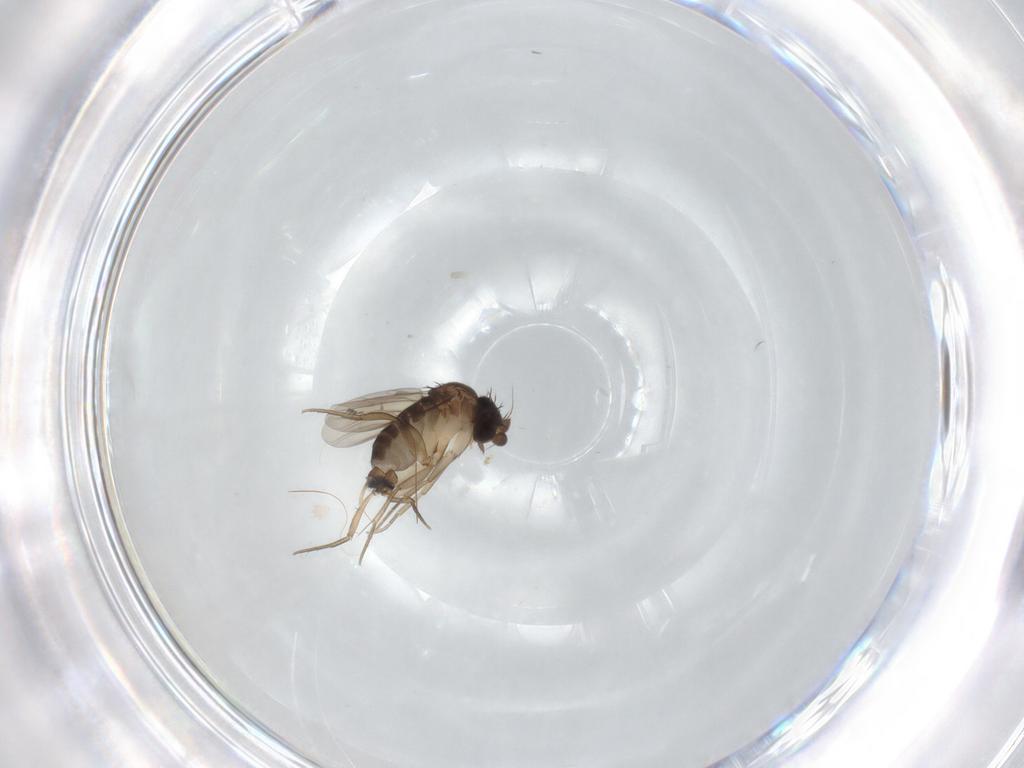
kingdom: Animalia
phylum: Arthropoda
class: Insecta
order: Diptera
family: Phoridae
